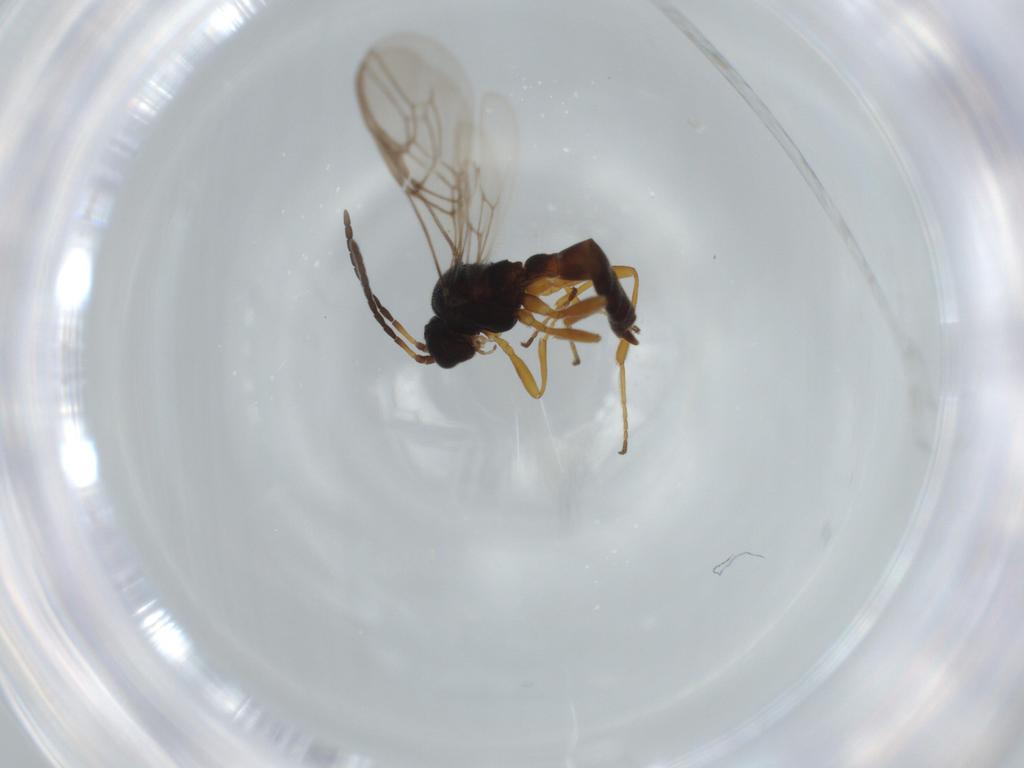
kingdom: Animalia
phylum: Arthropoda
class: Insecta
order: Hymenoptera
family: Braconidae
